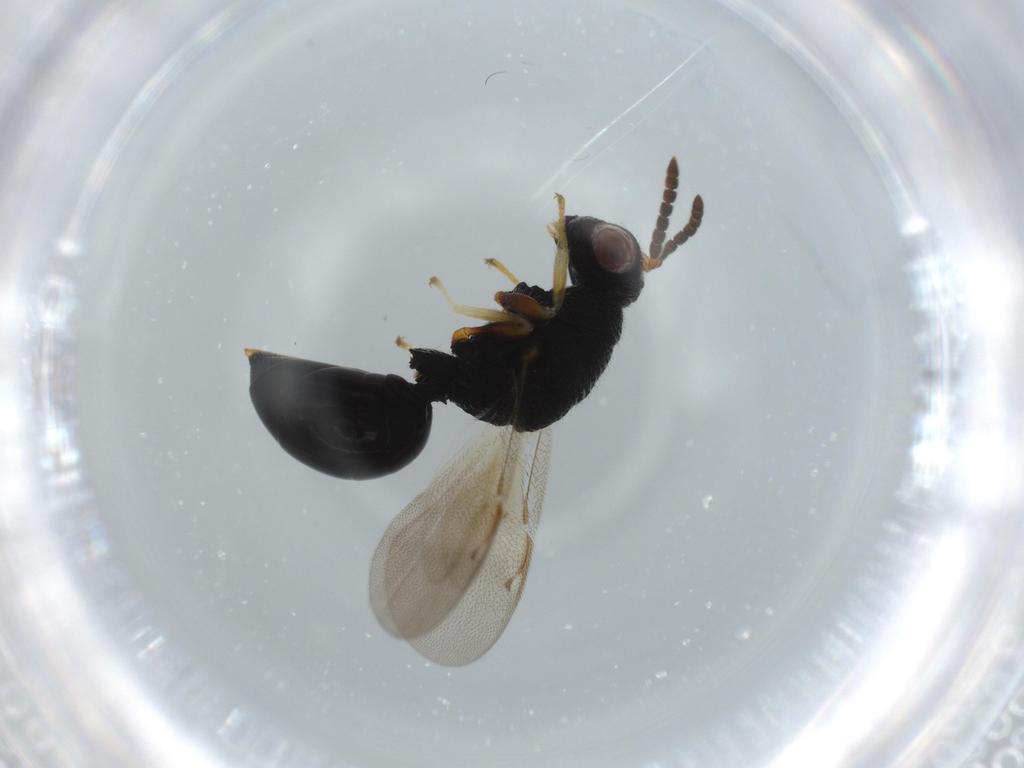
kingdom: Animalia
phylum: Arthropoda
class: Insecta
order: Hymenoptera
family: Bethylidae
